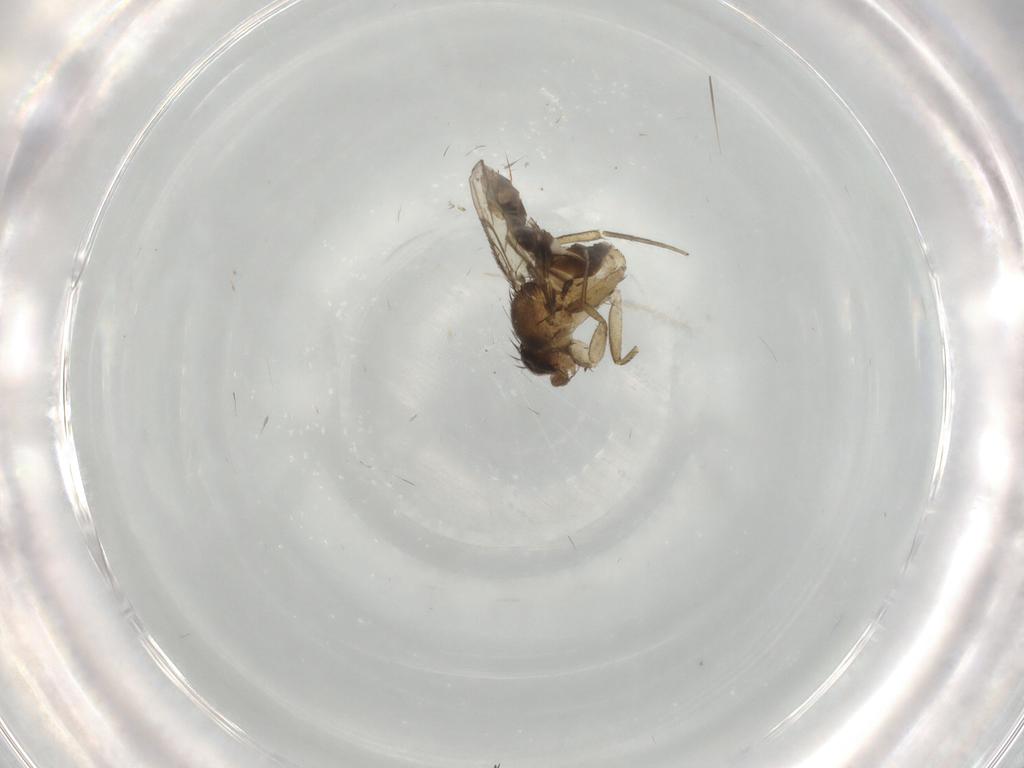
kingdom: Animalia
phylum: Arthropoda
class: Insecta
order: Diptera
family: Phoridae
